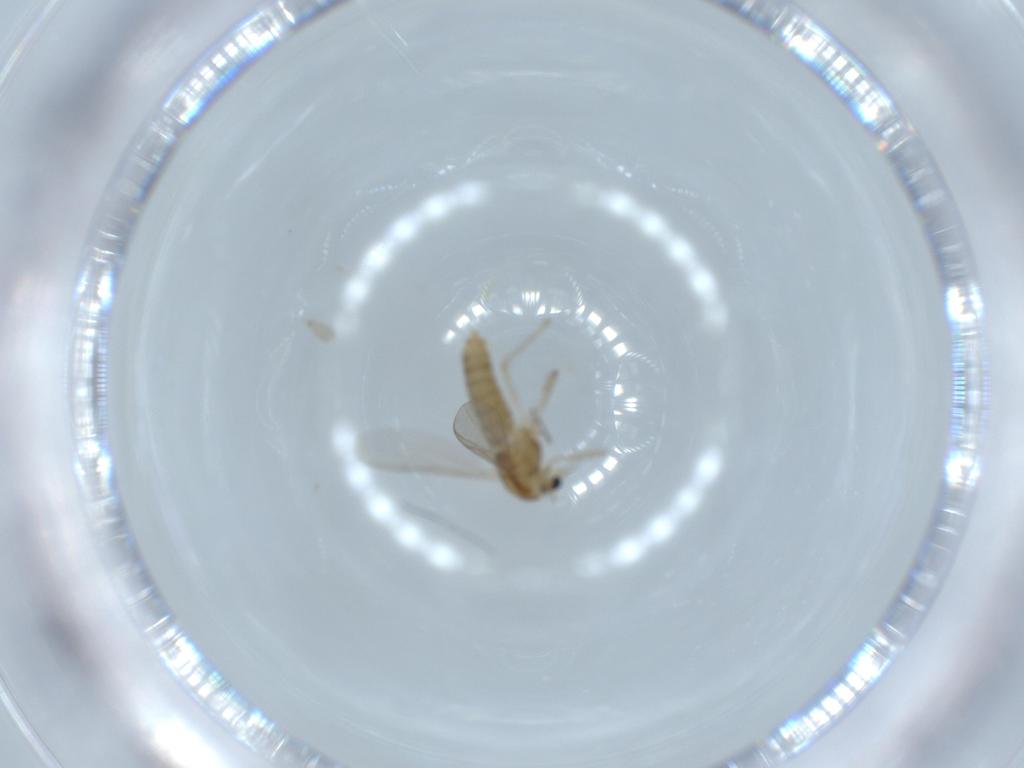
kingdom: Animalia
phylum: Arthropoda
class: Insecta
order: Diptera
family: Chironomidae
